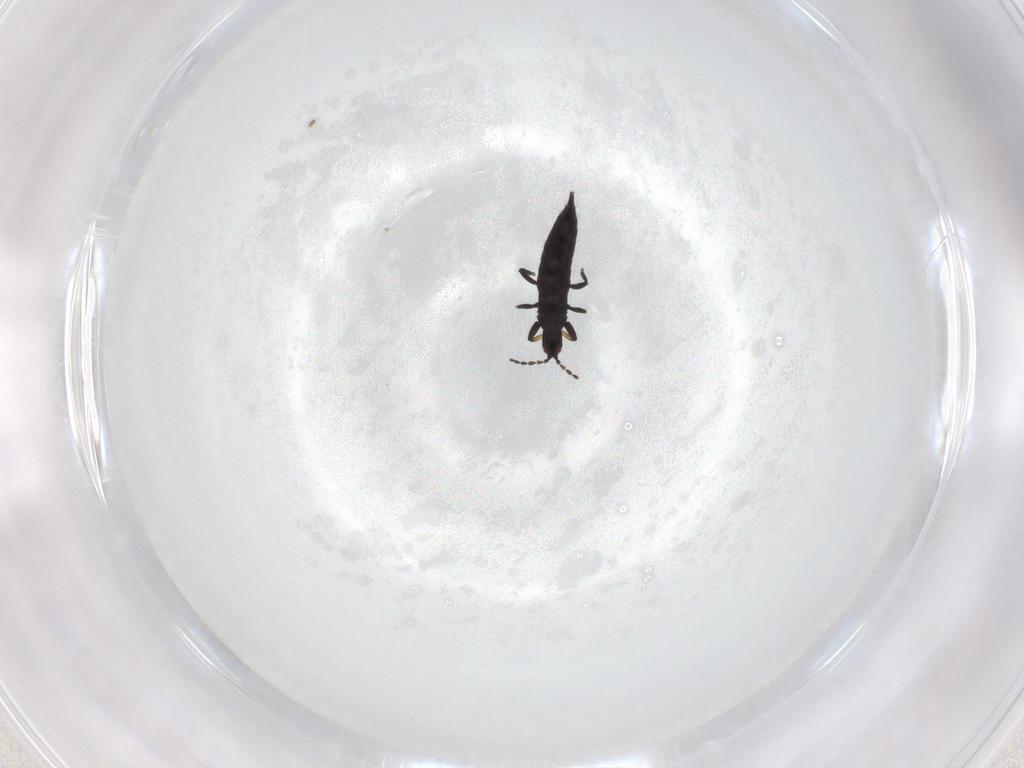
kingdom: Animalia
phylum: Arthropoda
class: Insecta
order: Thysanoptera
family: Phlaeothripidae
